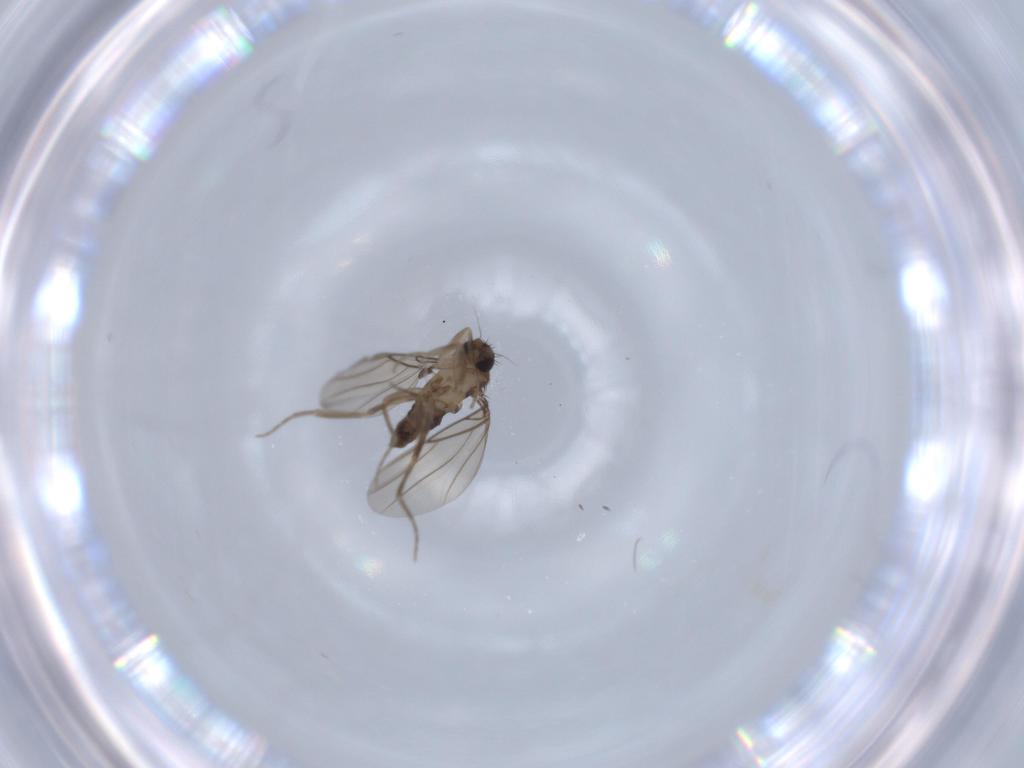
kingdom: Animalia
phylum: Arthropoda
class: Insecta
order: Diptera
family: Phoridae
